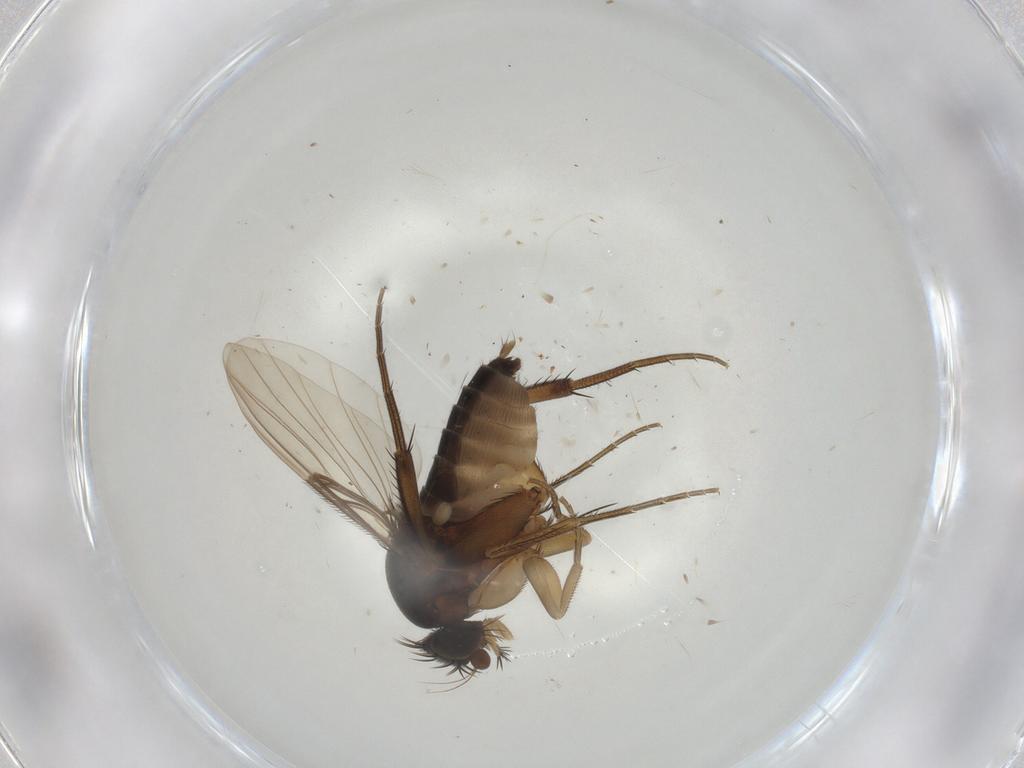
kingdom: Animalia
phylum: Arthropoda
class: Insecta
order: Diptera
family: Phoridae
